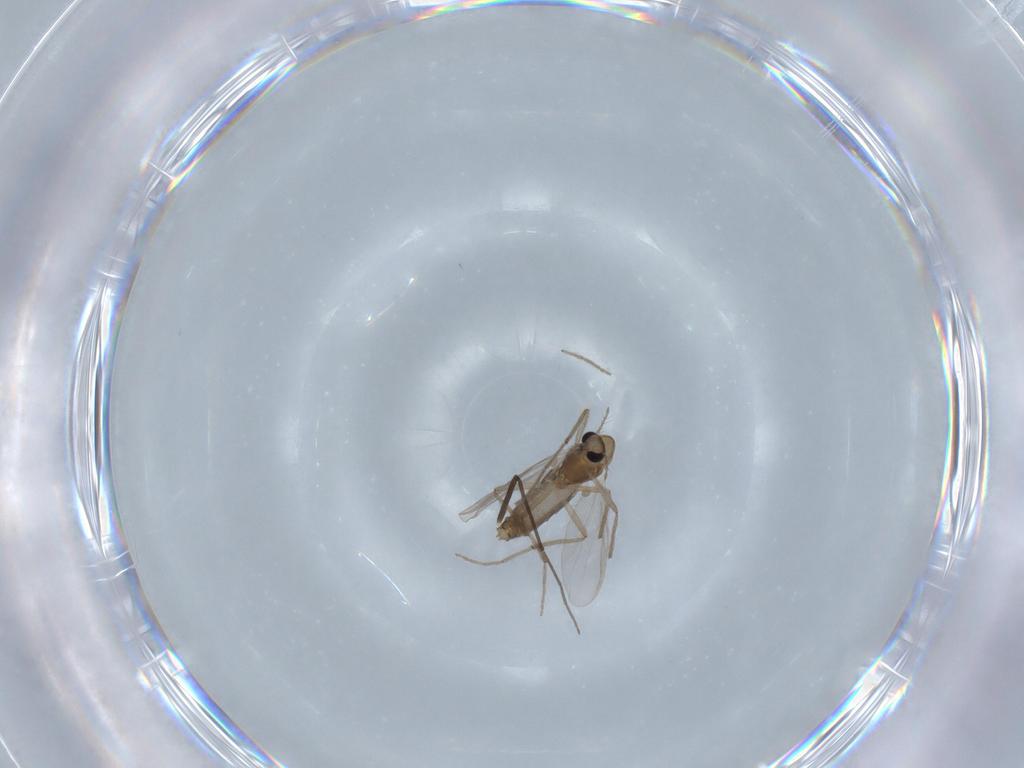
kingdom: Animalia
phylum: Arthropoda
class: Insecta
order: Diptera
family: Chironomidae
